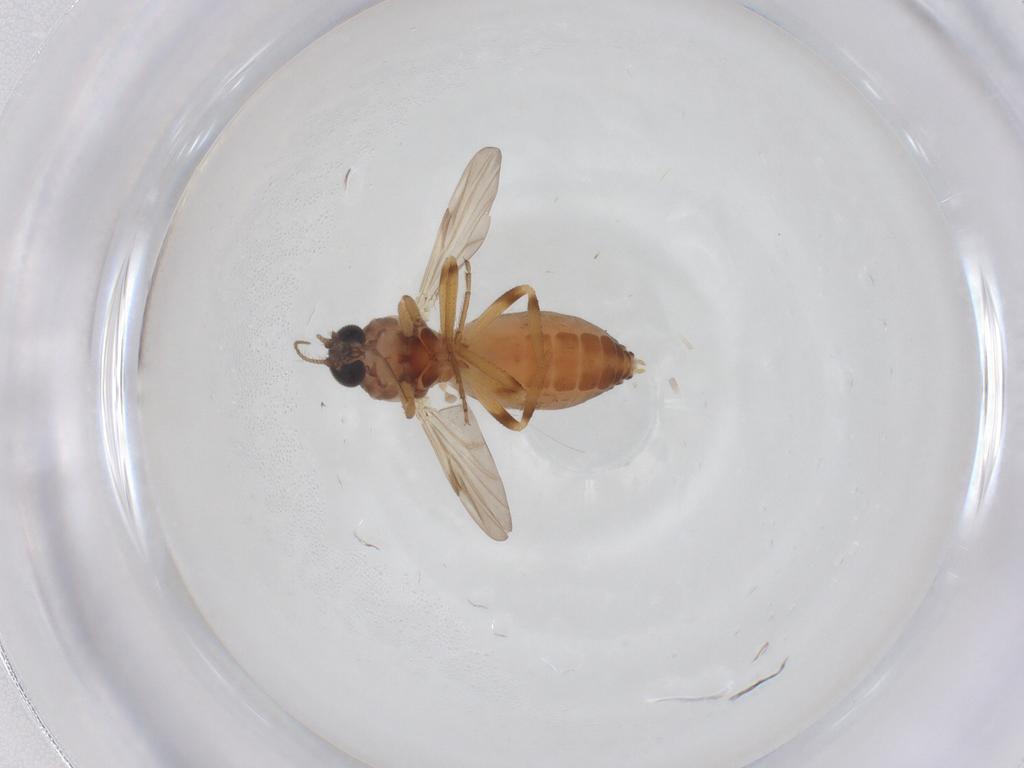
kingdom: Animalia
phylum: Arthropoda
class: Insecta
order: Diptera
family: Ceratopogonidae
